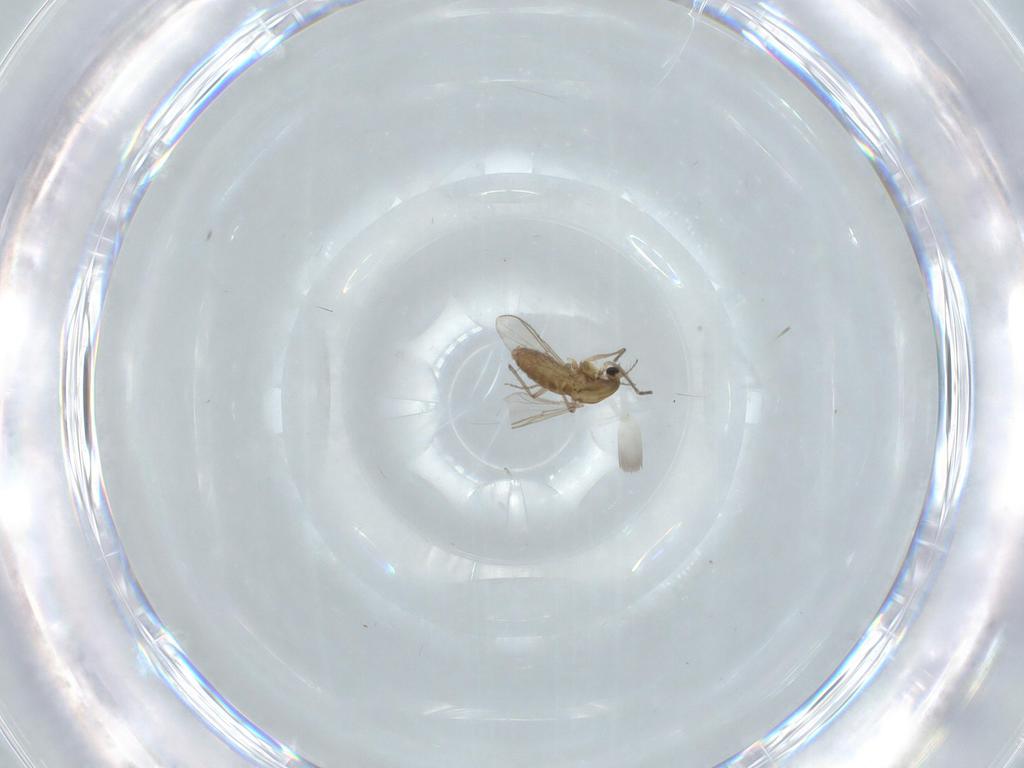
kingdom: Animalia
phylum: Arthropoda
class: Insecta
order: Diptera
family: Chironomidae
